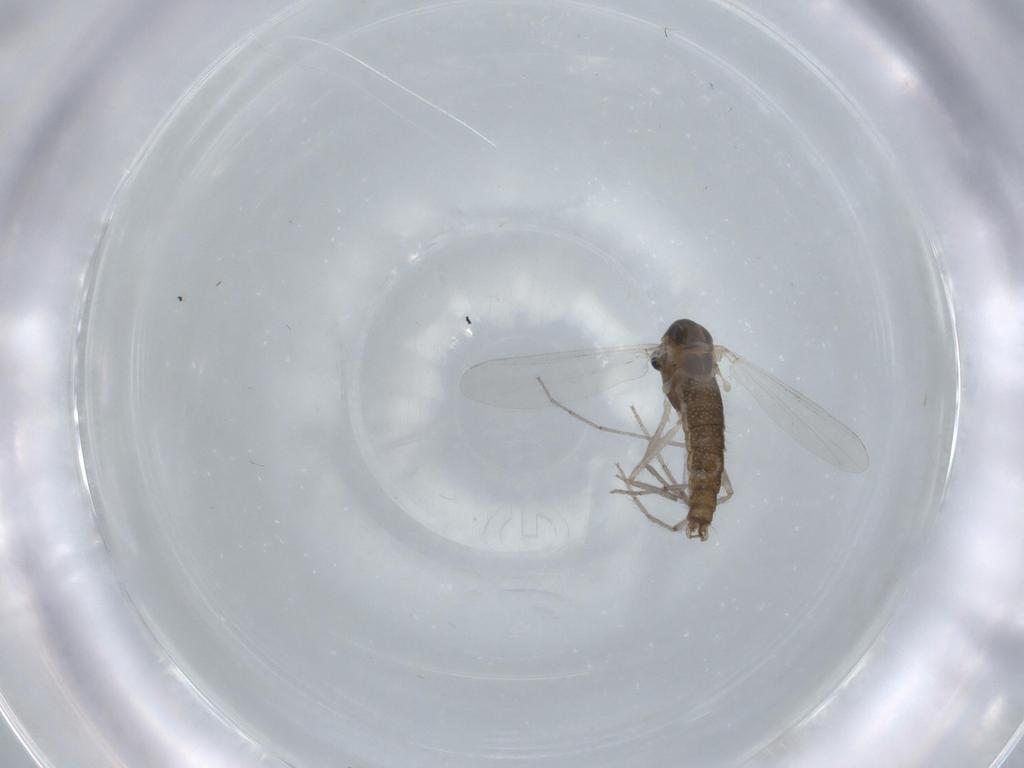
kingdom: Animalia
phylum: Arthropoda
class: Insecta
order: Diptera
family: Chironomidae
